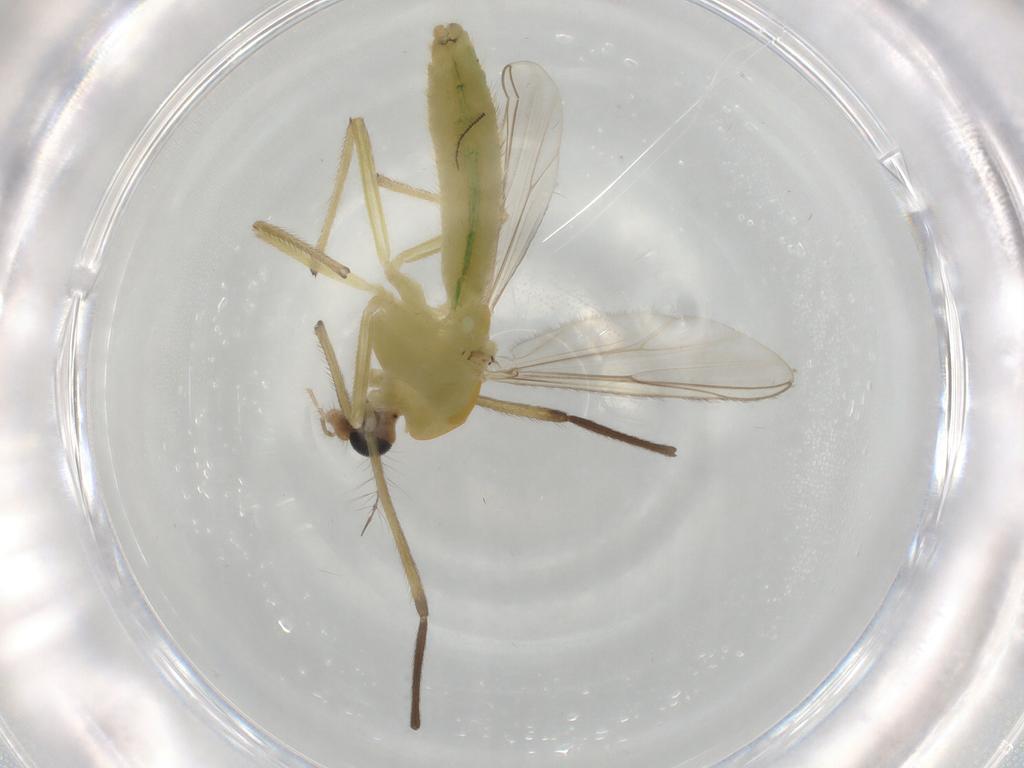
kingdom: Animalia
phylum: Arthropoda
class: Insecta
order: Diptera
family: Chironomidae
